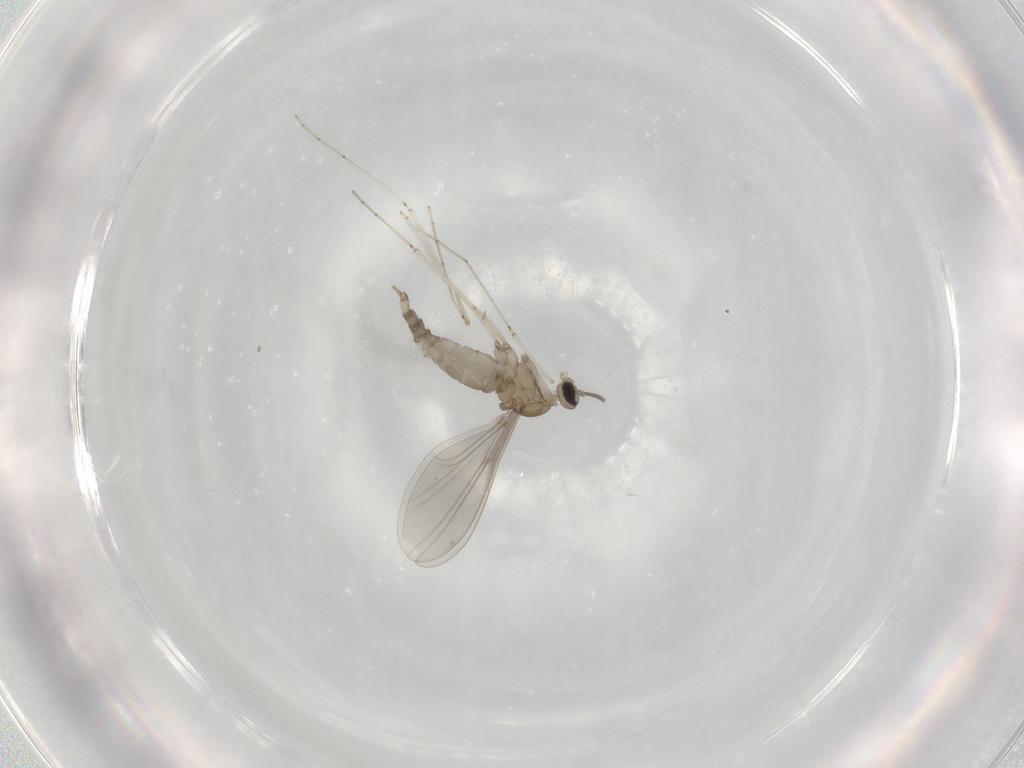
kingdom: Animalia
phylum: Arthropoda
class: Insecta
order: Diptera
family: Cecidomyiidae
